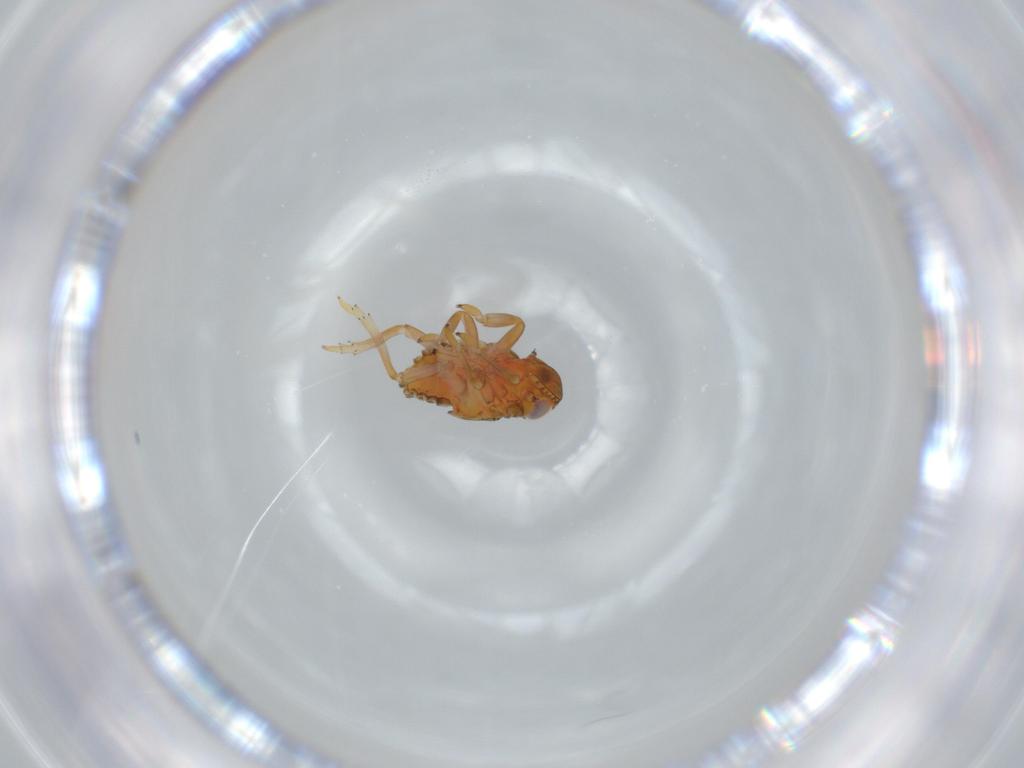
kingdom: Animalia
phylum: Arthropoda
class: Insecta
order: Hemiptera
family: Issidae
